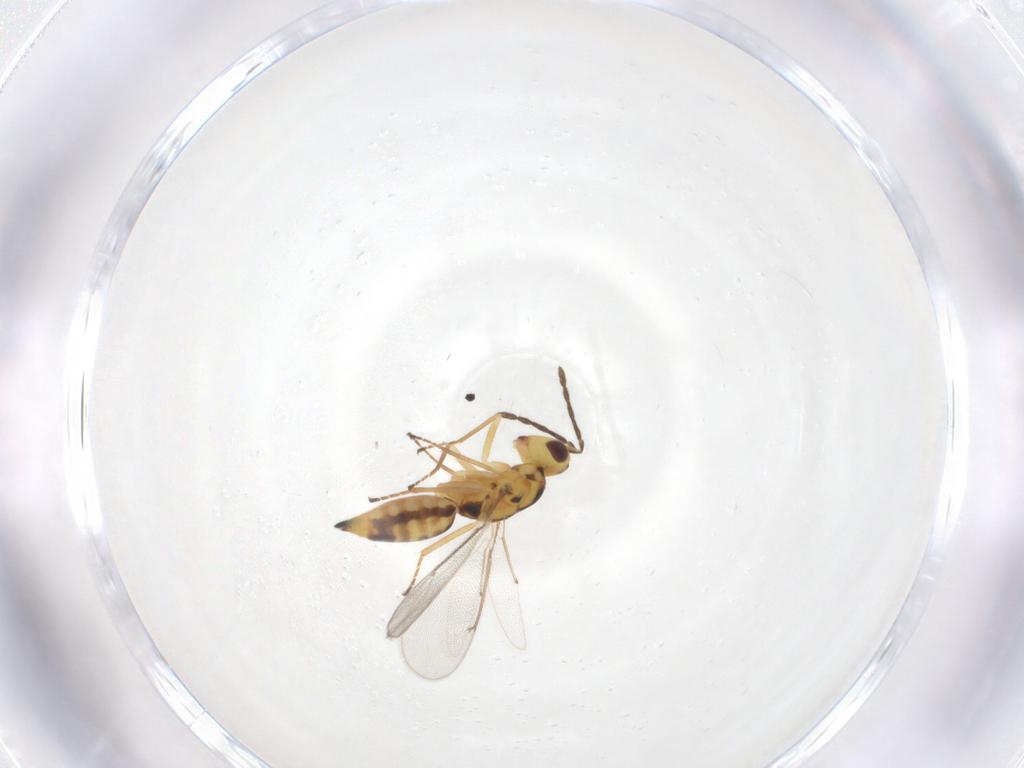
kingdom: Animalia
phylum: Arthropoda
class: Insecta
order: Hymenoptera
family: Eulophidae
